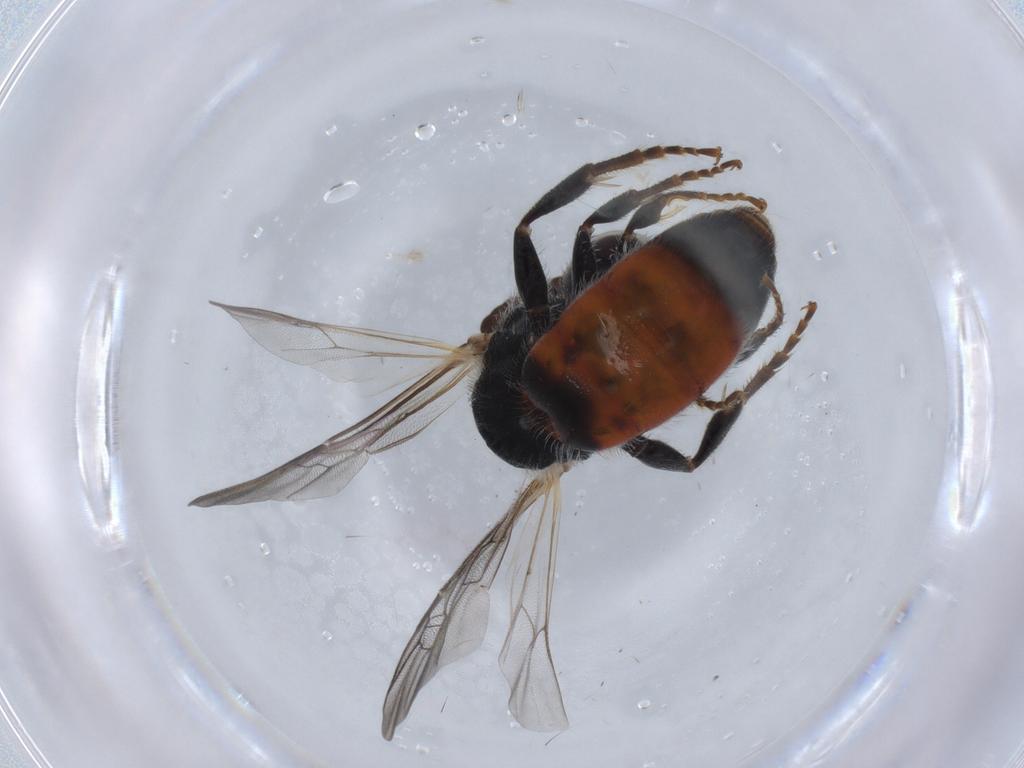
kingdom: Animalia
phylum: Arthropoda
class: Insecta
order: Hymenoptera
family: Halictidae
